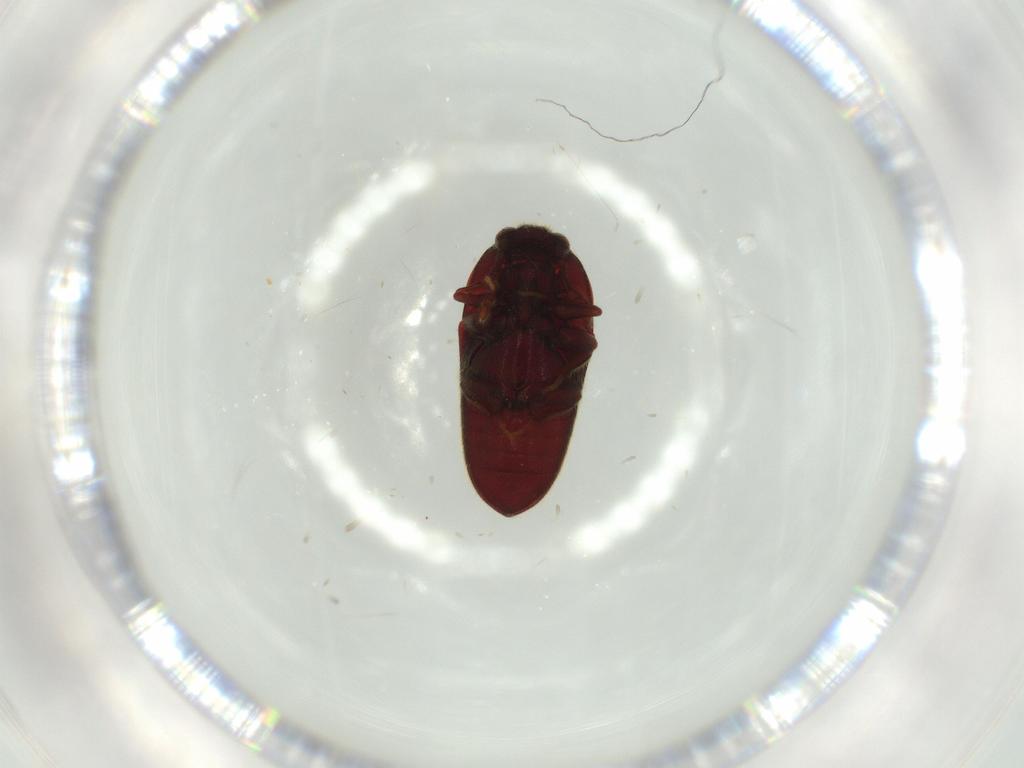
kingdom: Animalia
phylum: Arthropoda
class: Insecta
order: Coleoptera
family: Throscidae
